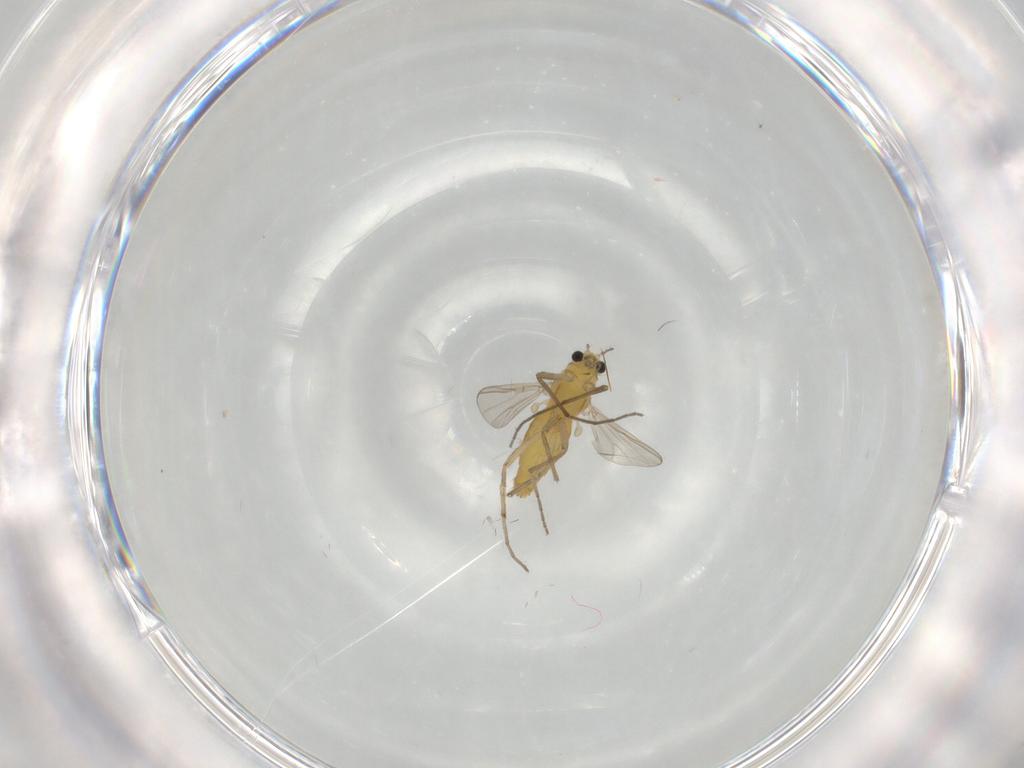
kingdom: Animalia
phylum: Arthropoda
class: Insecta
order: Diptera
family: Chironomidae
